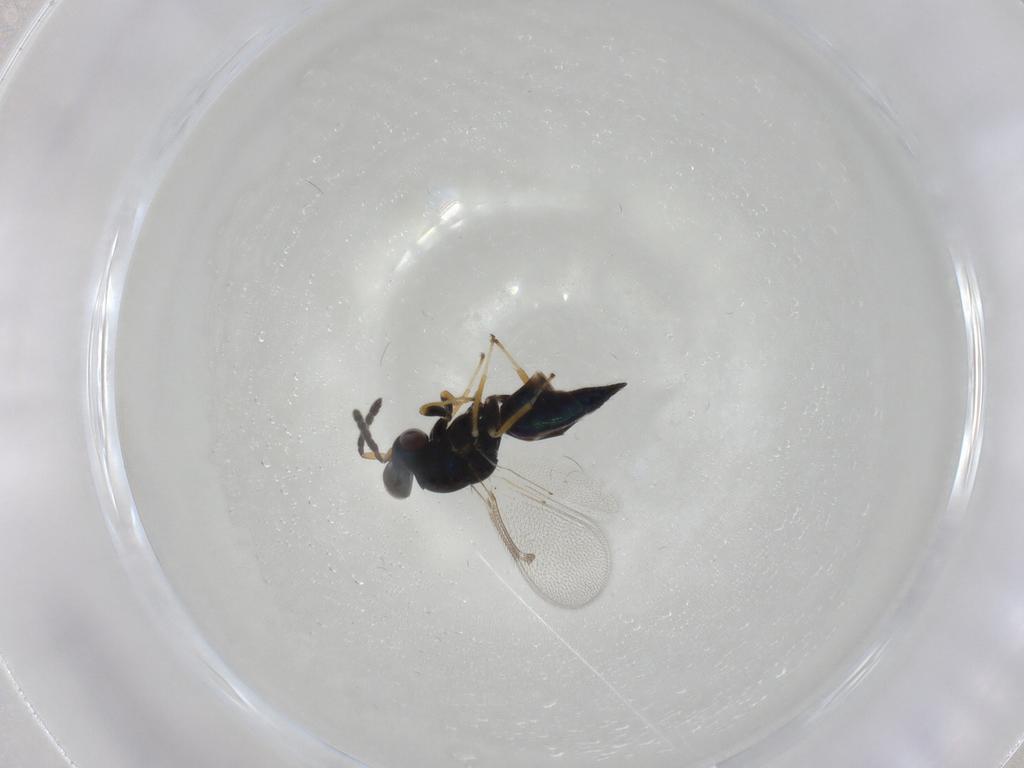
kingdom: Animalia
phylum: Arthropoda
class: Insecta
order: Hymenoptera
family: Eulophidae
